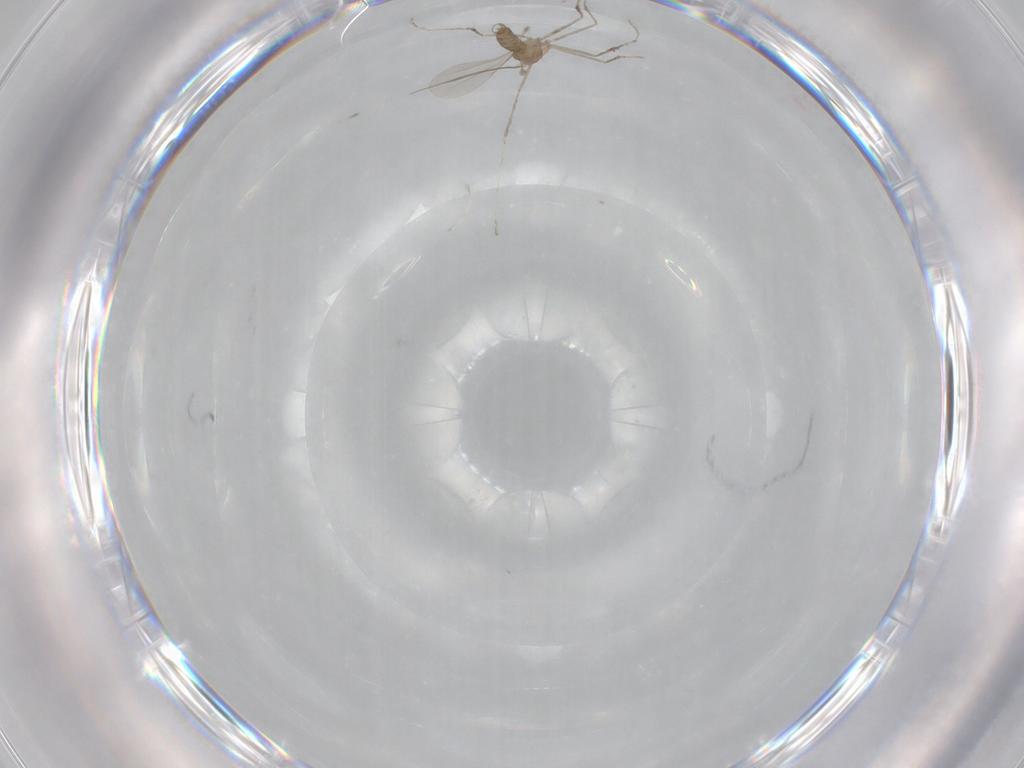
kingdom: Animalia
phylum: Arthropoda
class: Insecta
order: Diptera
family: Cecidomyiidae
